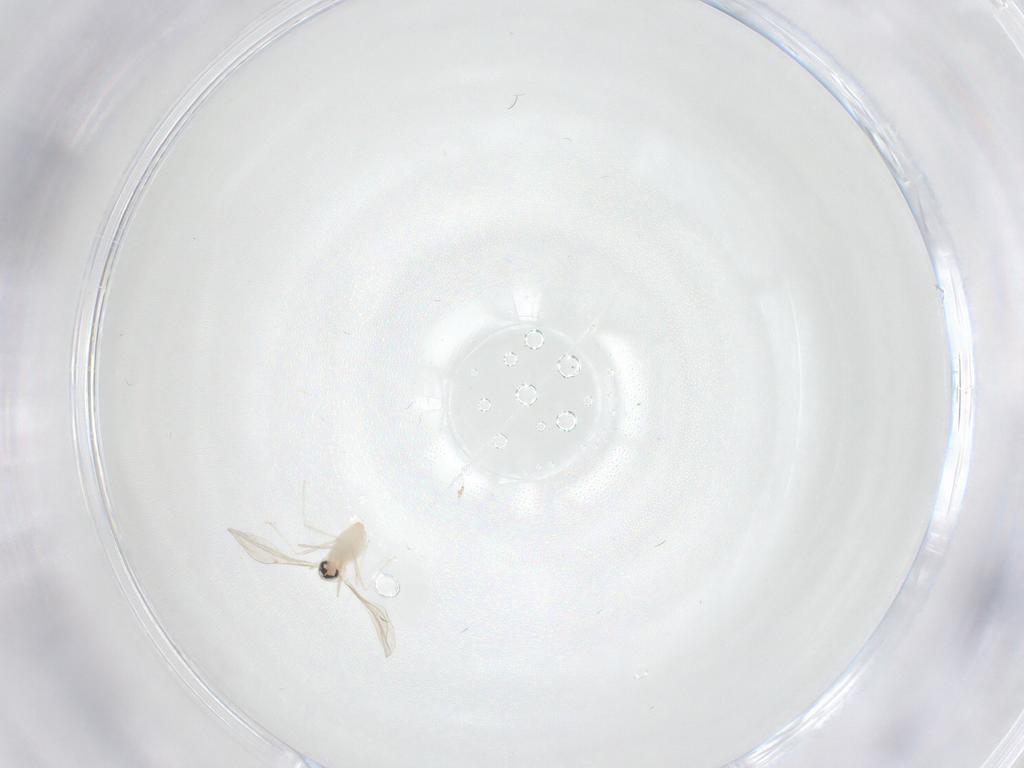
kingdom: Animalia
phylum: Arthropoda
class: Insecta
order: Diptera
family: Cecidomyiidae
